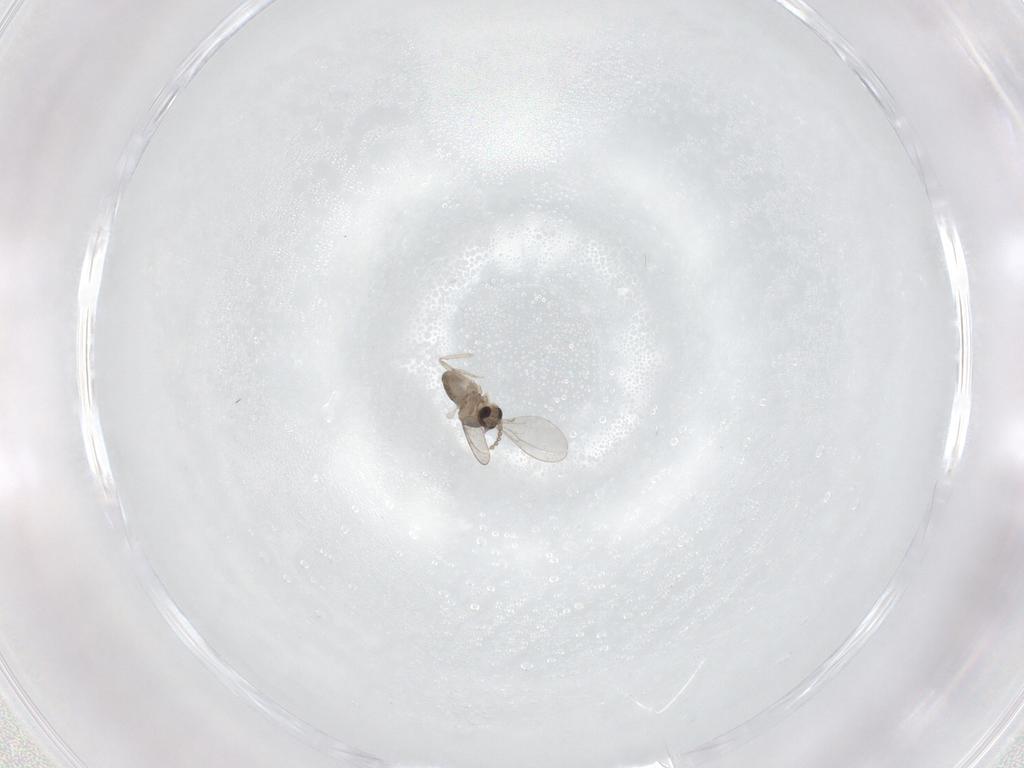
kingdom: Animalia
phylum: Arthropoda
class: Insecta
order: Diptera
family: Cecidomyiidae
